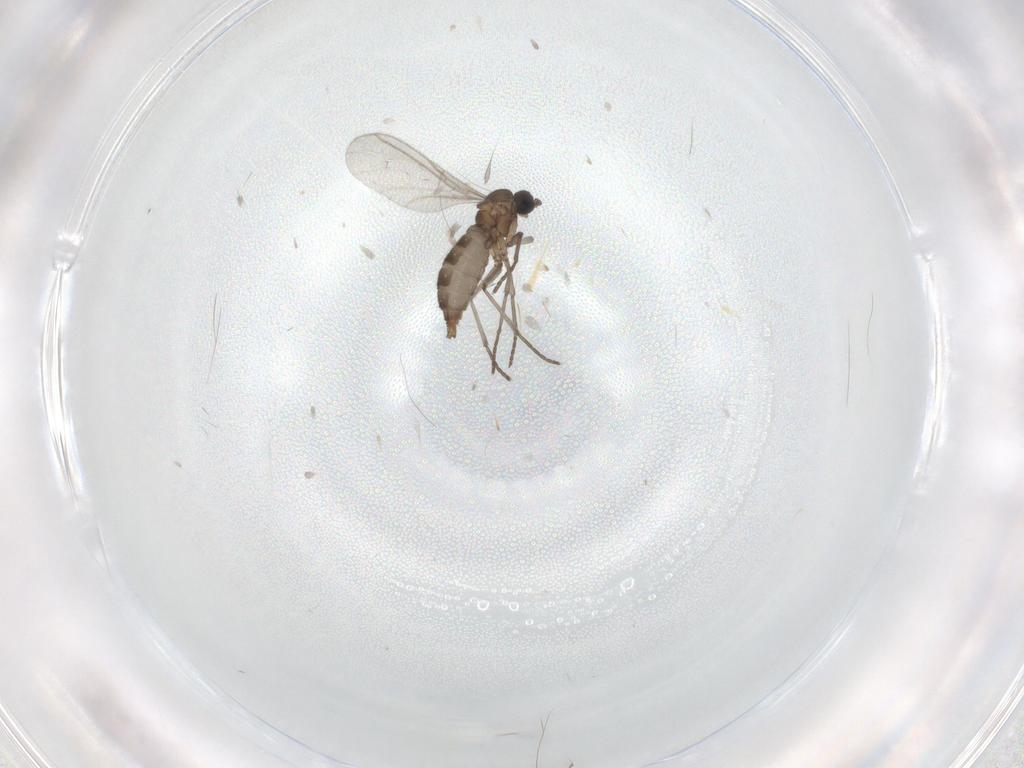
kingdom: Animalia
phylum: Arthropoda
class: Insecta
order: Diptera
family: Sciaridae
